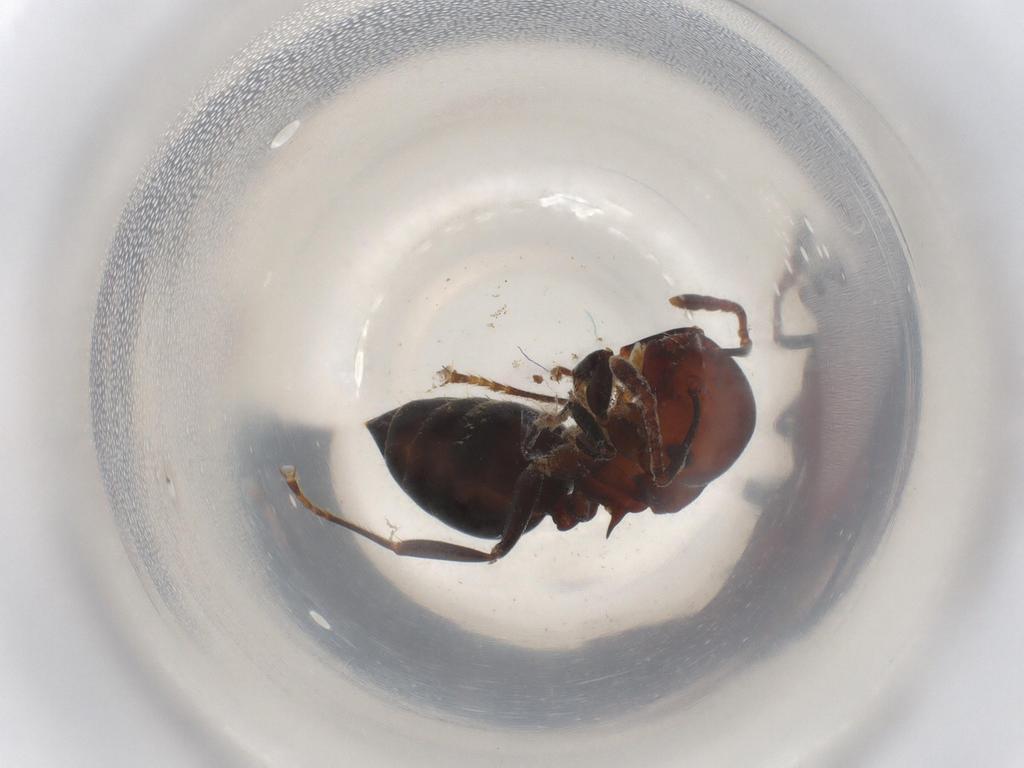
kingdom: Animalia
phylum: Arthropoda
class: Insecta
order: Hymenoptera
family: Formicidae
